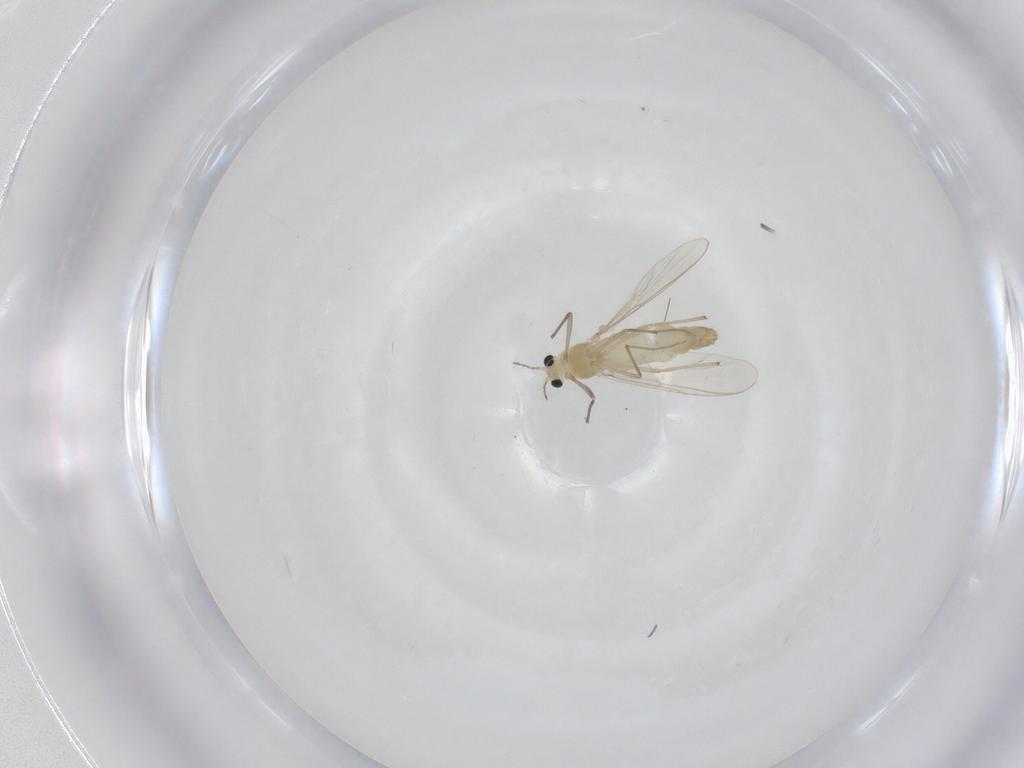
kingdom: Animalia
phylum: Arthropoda
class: Insecta
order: Diptera
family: Chironomidae
